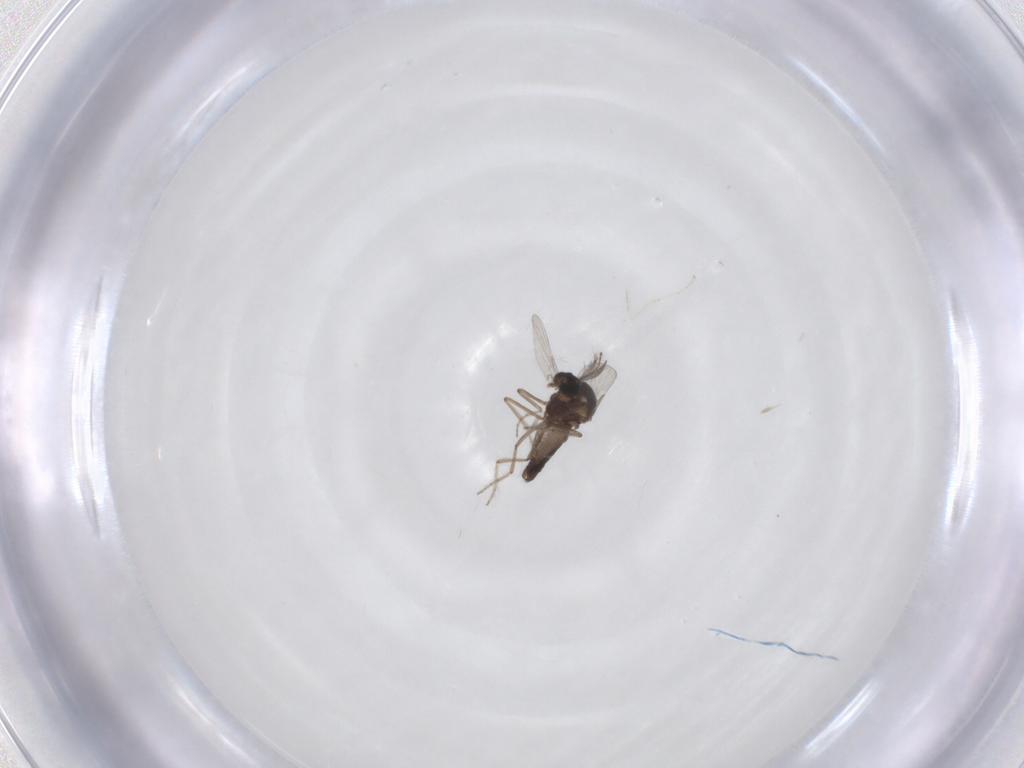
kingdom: Animalia
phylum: Arthropoda
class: Insecta
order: Diptera
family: Ceratopogonidae
